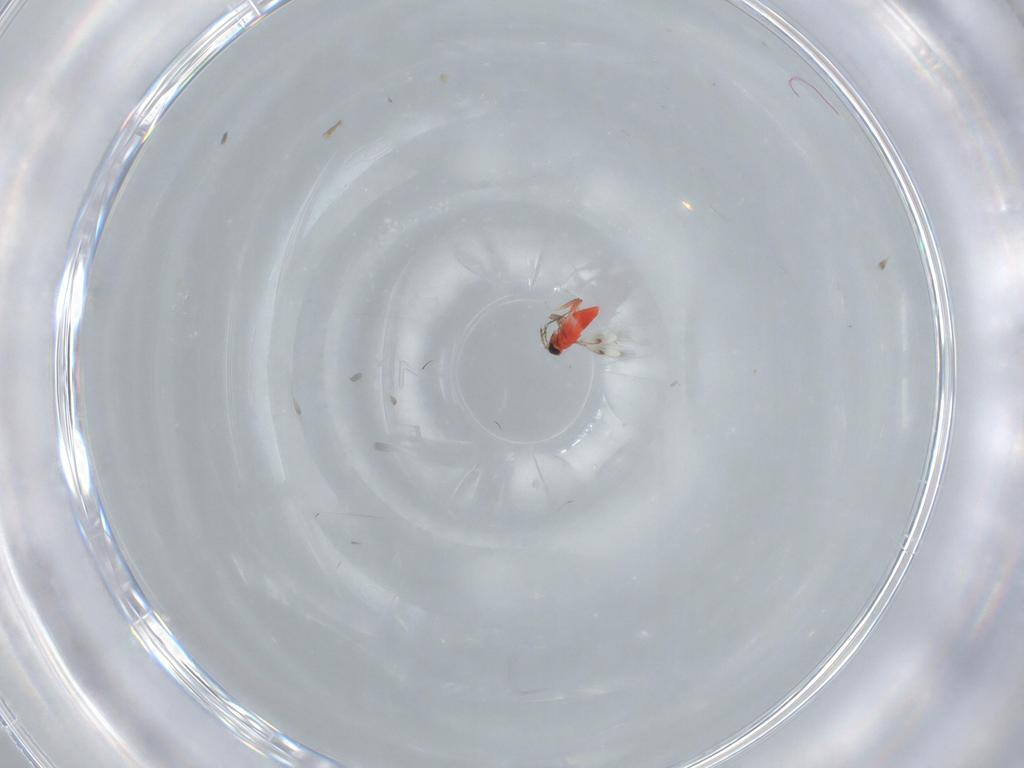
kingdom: Animalia
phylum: Arthropoda
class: Insecta
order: Hymenoptera
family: Trichogrammatidae
